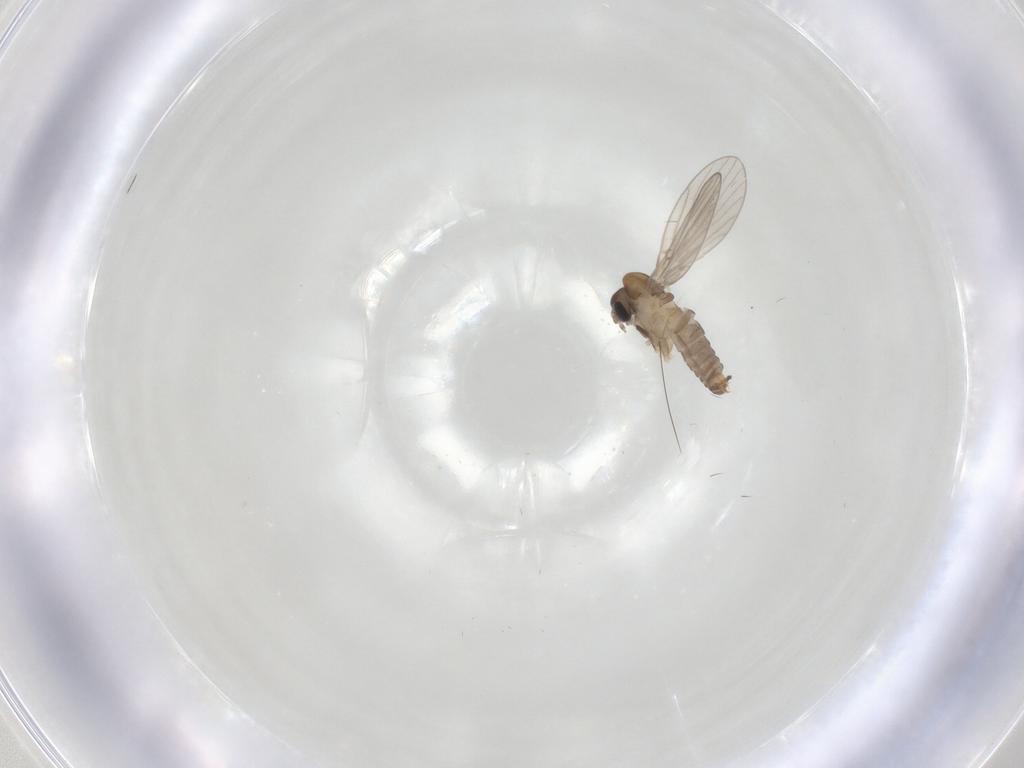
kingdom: Animalia
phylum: Arthropoda
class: Insecta
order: Diptera
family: Psychodidae
